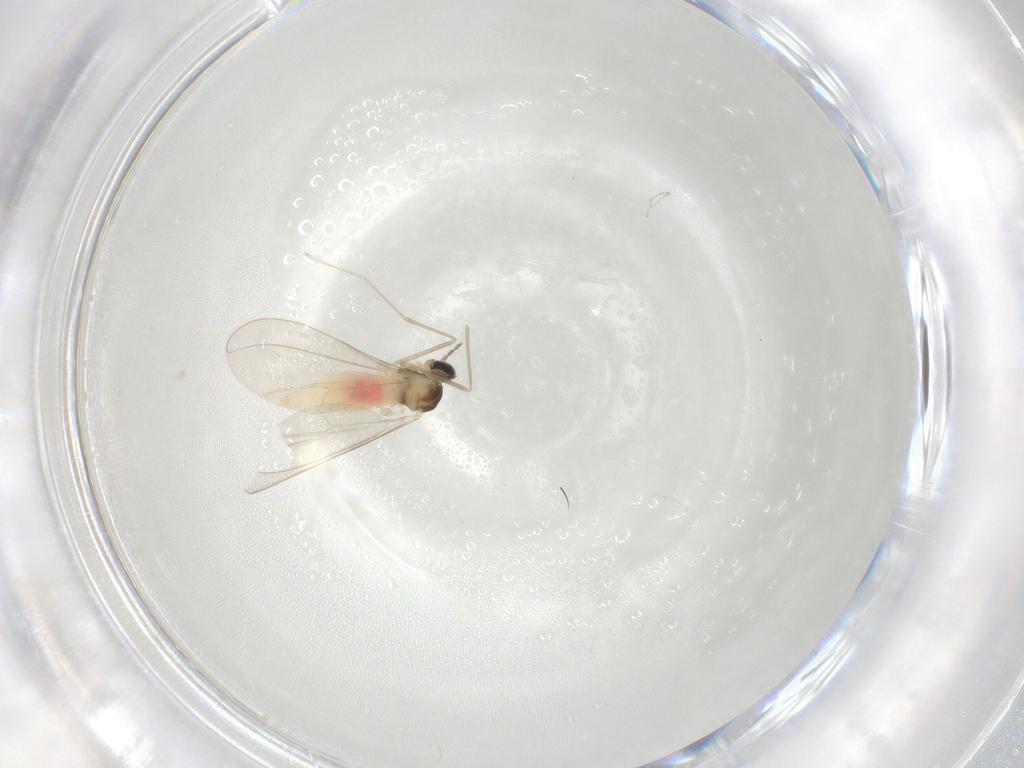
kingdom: Animalia
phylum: Arthropoda
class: Insecta
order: Diptera
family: Cecidomyiidae
